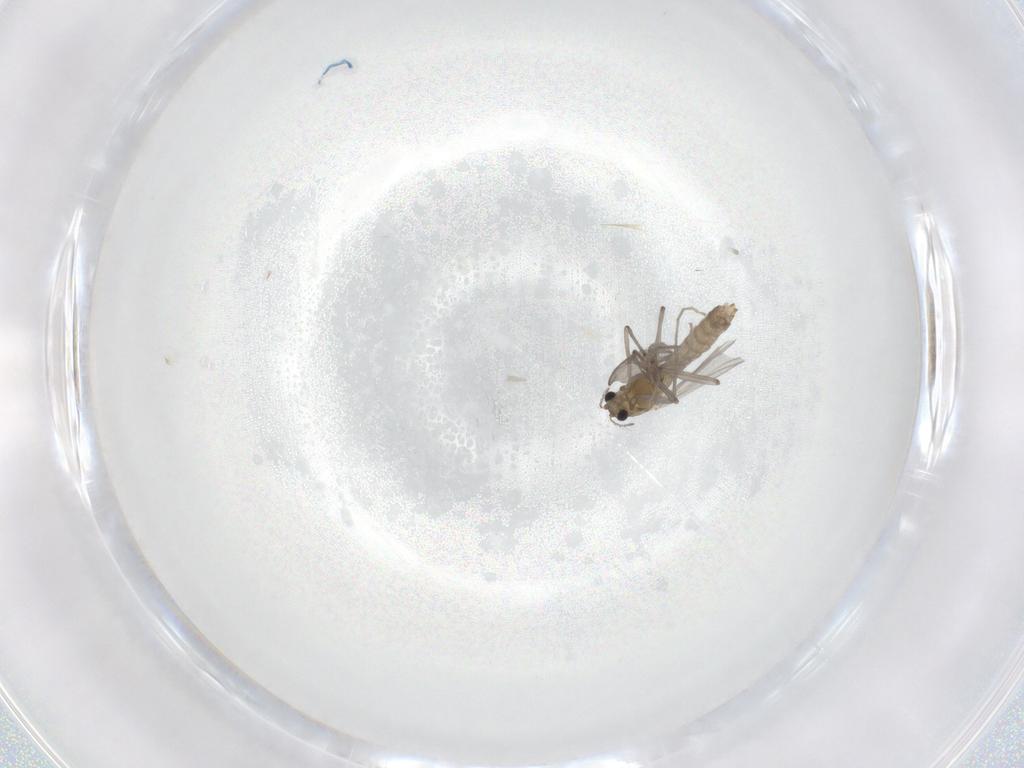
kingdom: Animalia
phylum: Arthropoda
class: Insecta
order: Diptera
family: Chironomidae
